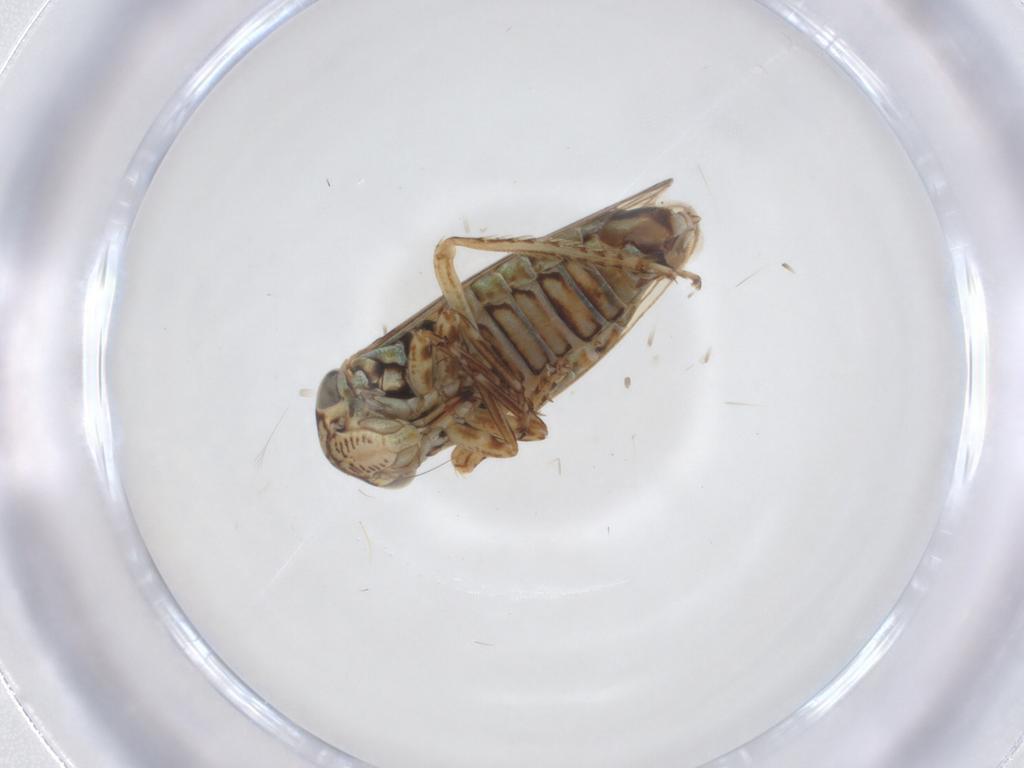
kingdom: Animalia
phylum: Arthropoda
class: Insecta
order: Hemiptera
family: Cicadellidae
